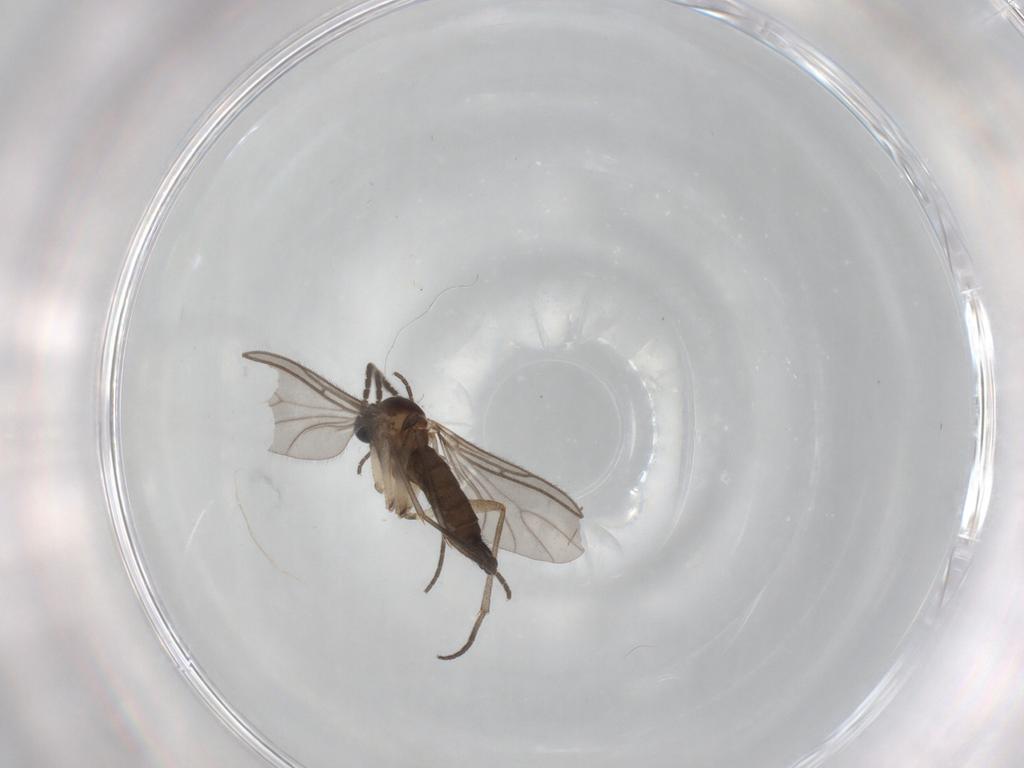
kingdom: Animalia
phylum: Arthropoda
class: Insecta
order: Diptera
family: Sciaridae
